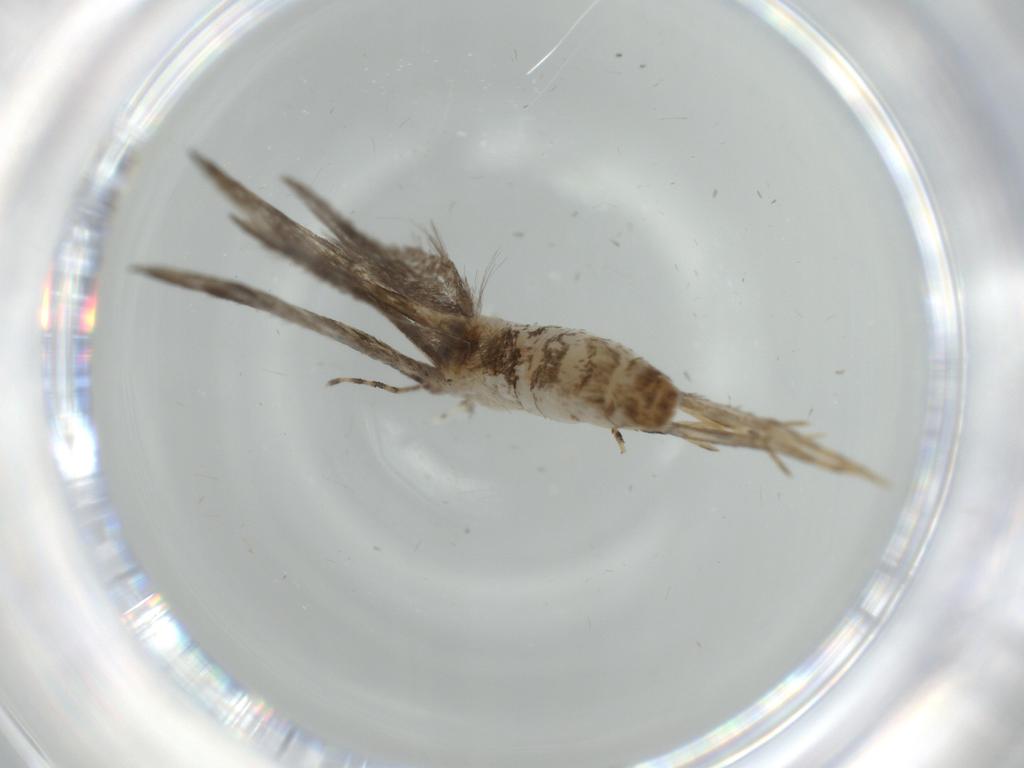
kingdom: Animalia
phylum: Arthropoda
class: Insecta
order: Lepidoptera
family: Tineidae
